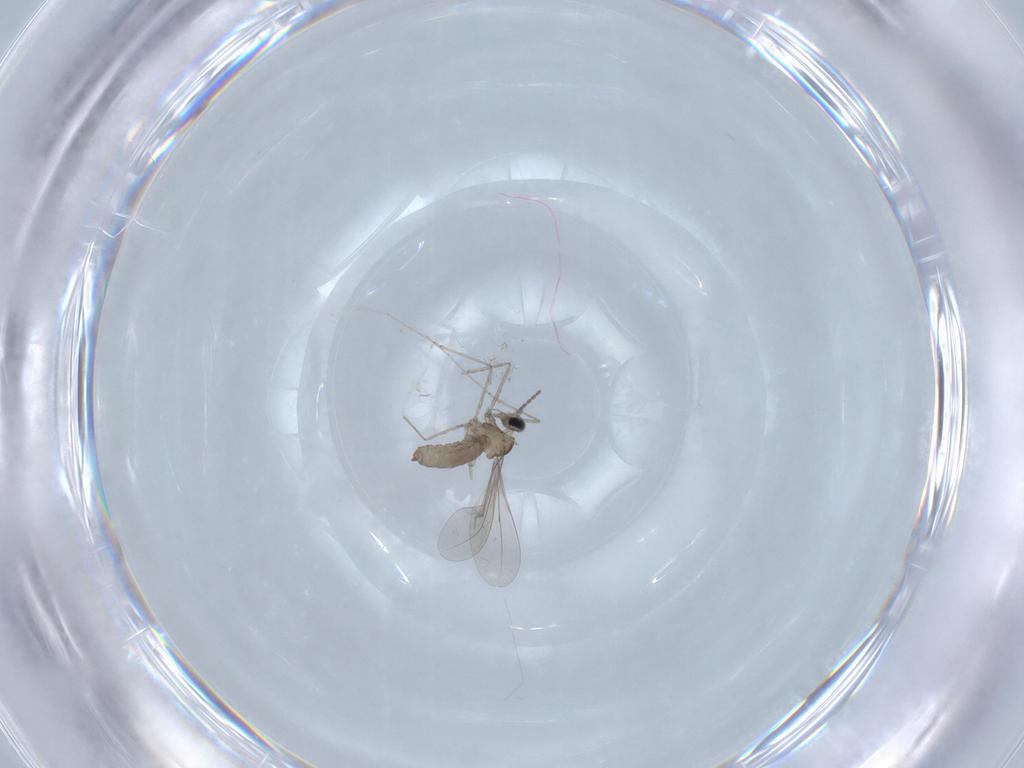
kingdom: Animalia
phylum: Arthropoda
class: Insecta
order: Diptera
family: Cecidomyiidae
